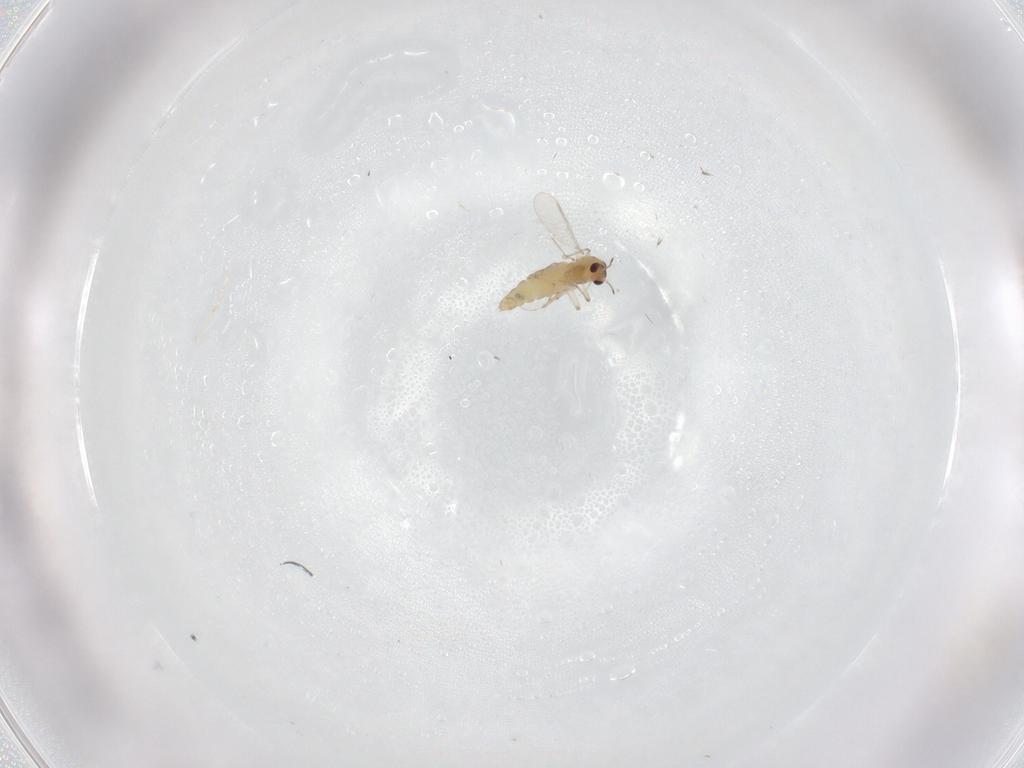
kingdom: Animalia
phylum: Arthropoda
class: Insecta
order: Diptera
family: Chironomidae
